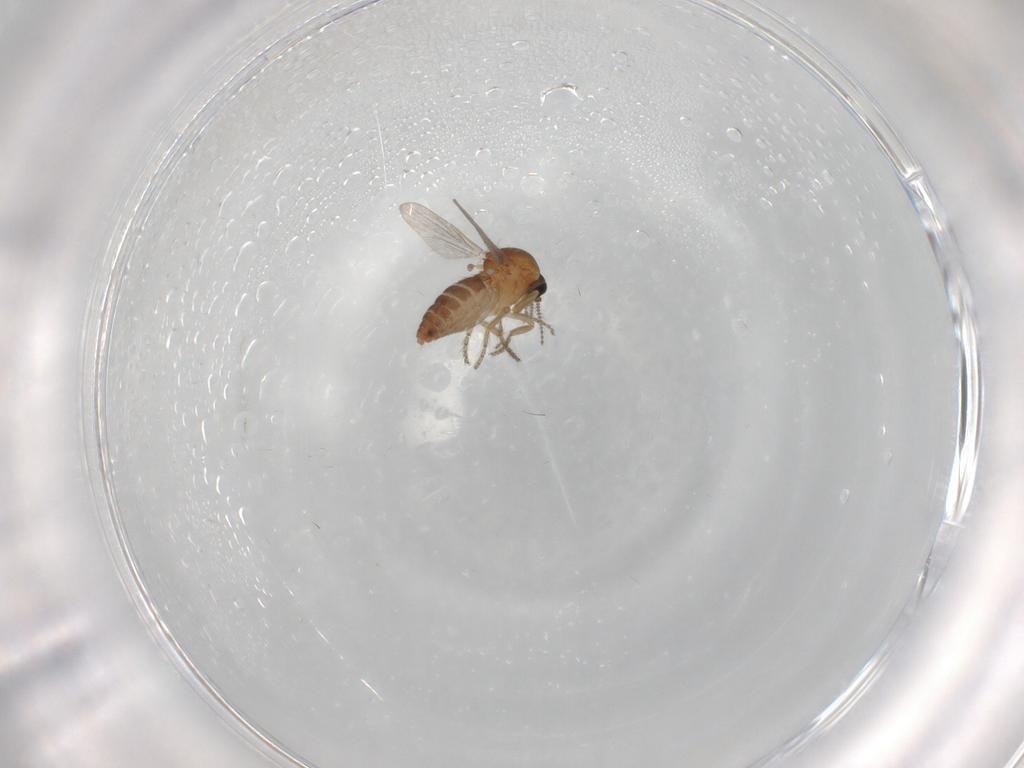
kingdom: Animalia
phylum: Arthropoda
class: Insecta
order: Diptera
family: Ceratopogonidae
